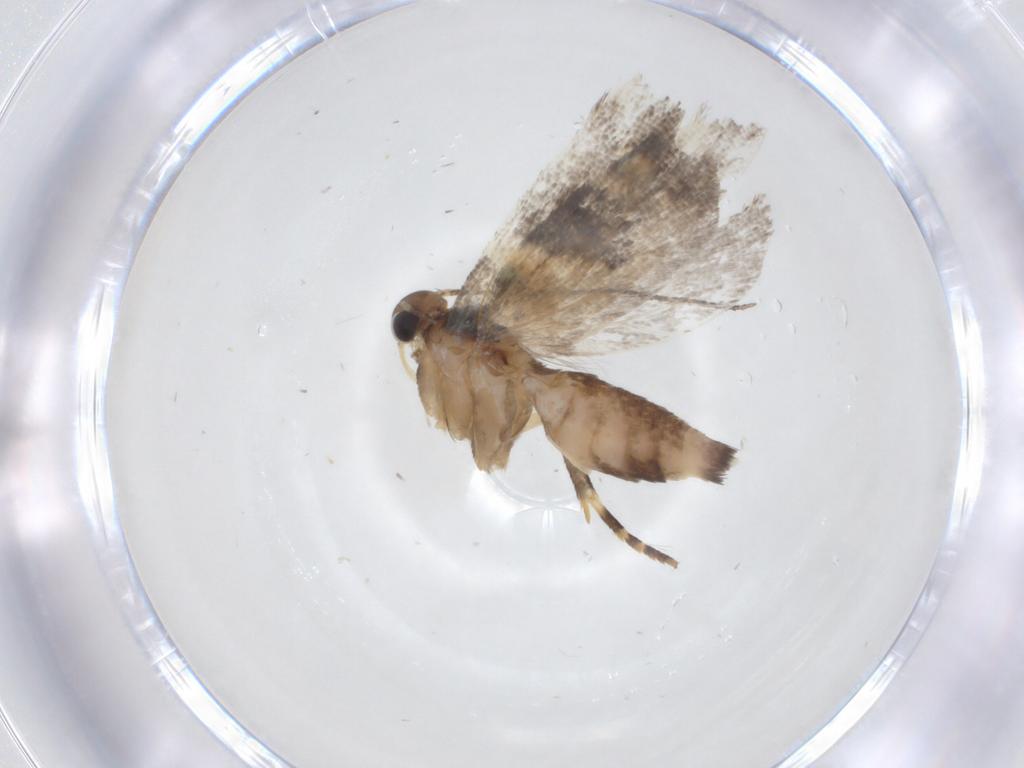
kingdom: Animalia
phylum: Arthropoda
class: Insecta
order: Lepidoptera
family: Gelechiidae
